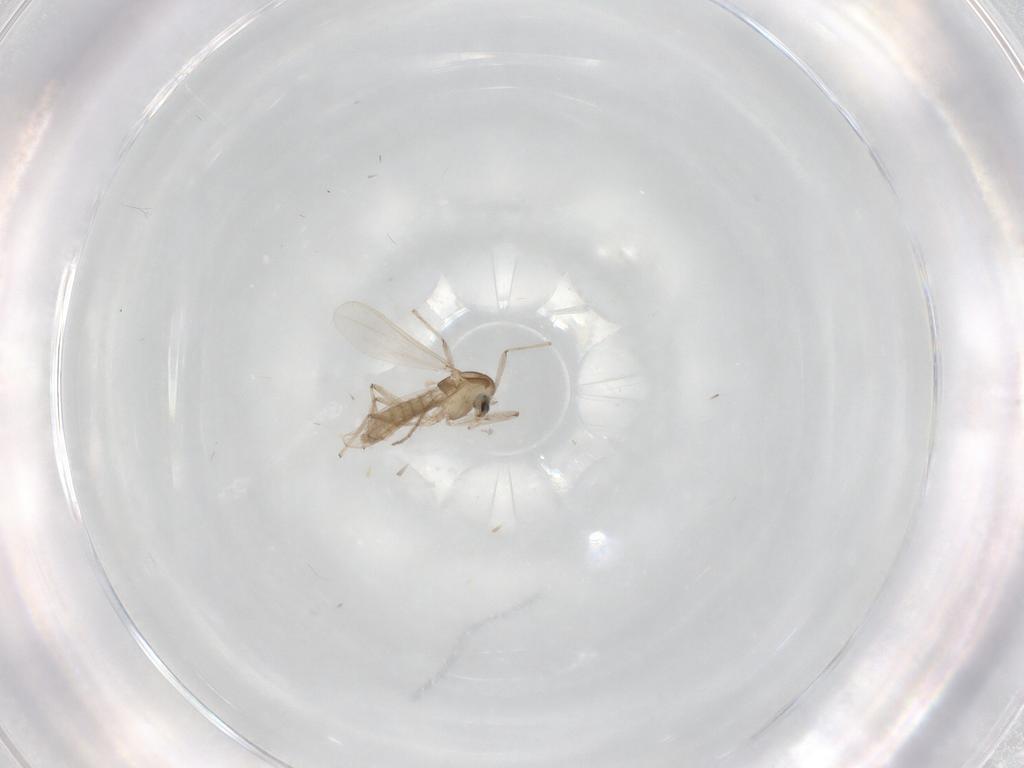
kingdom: Animalia
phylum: Arthropoda
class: Insecta
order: Diptera
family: Chironomidae
